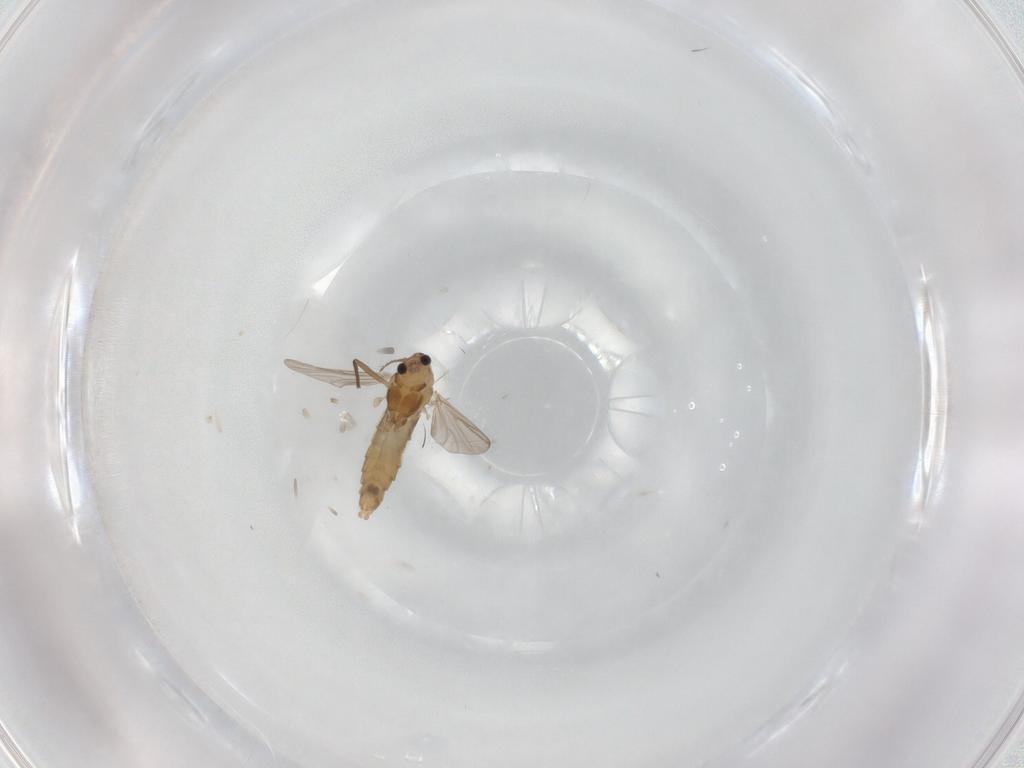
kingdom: Animalia
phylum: Arthropoda
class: Insecta
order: Diptera
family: Chironomidae
